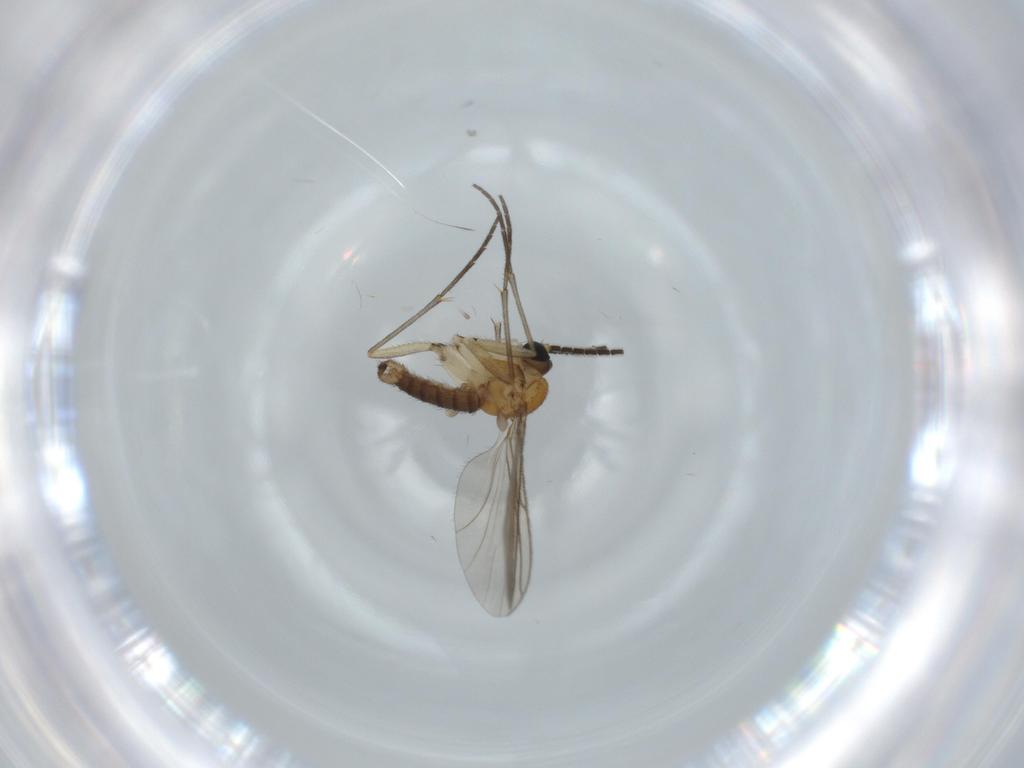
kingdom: Animalia
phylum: Arthropoda
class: Insecta
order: Diptera
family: Sciaridae
